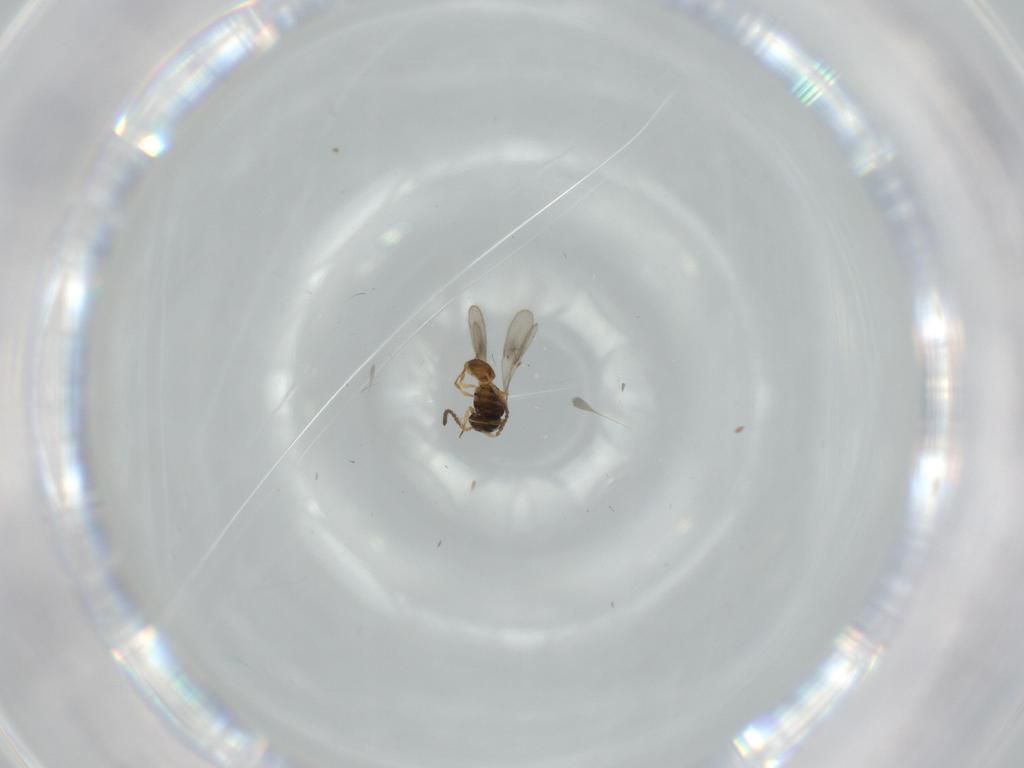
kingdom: Animalia
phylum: Arthropoda
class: Insecta
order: Hymenoptera
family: Scelionidae
